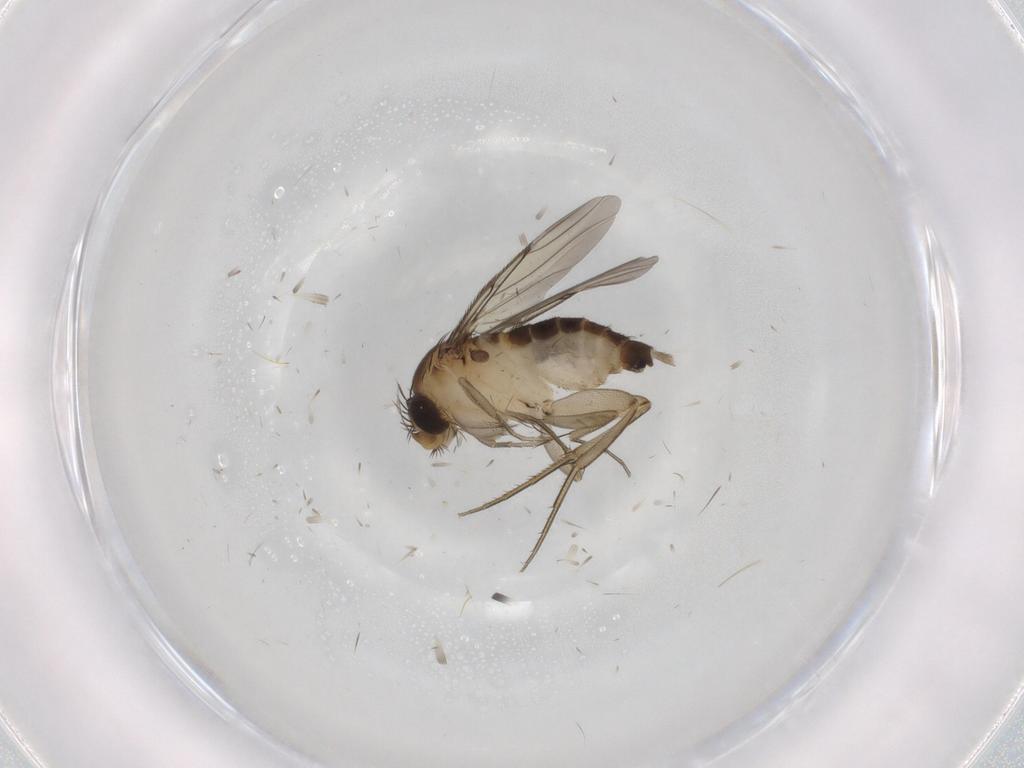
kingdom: Animalia
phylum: Arthropoda
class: Insecta
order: Diptera
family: Phoridae
